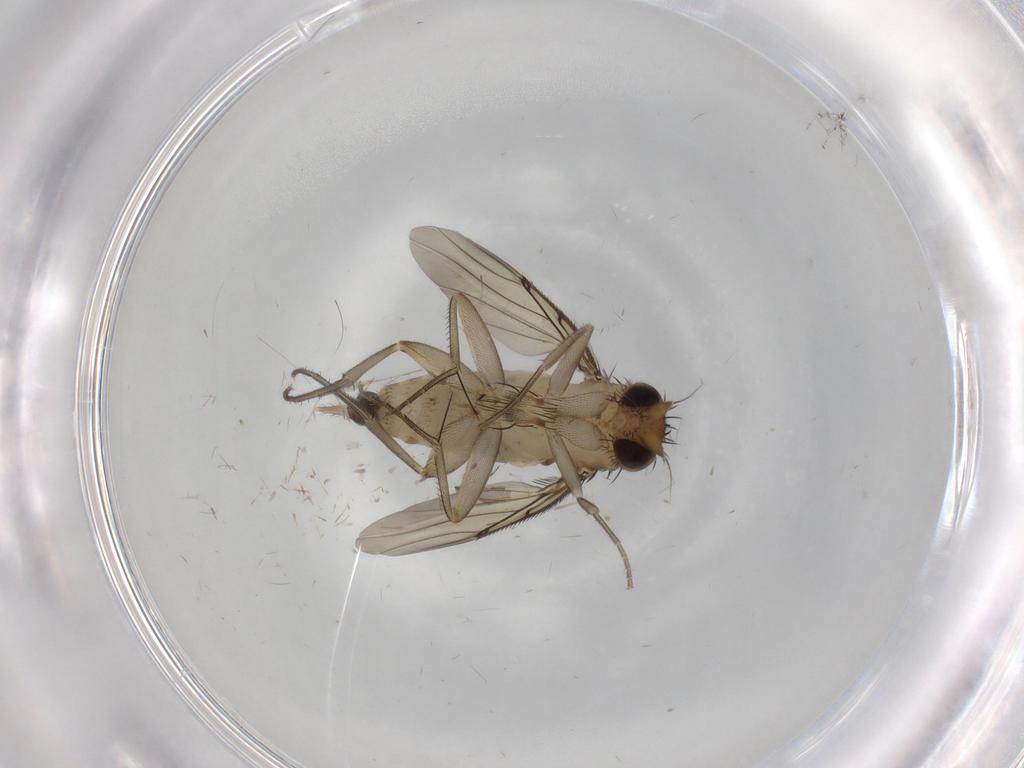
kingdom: Animalia
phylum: Arthropoda
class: Insecta
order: Diptera
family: Phoridae
